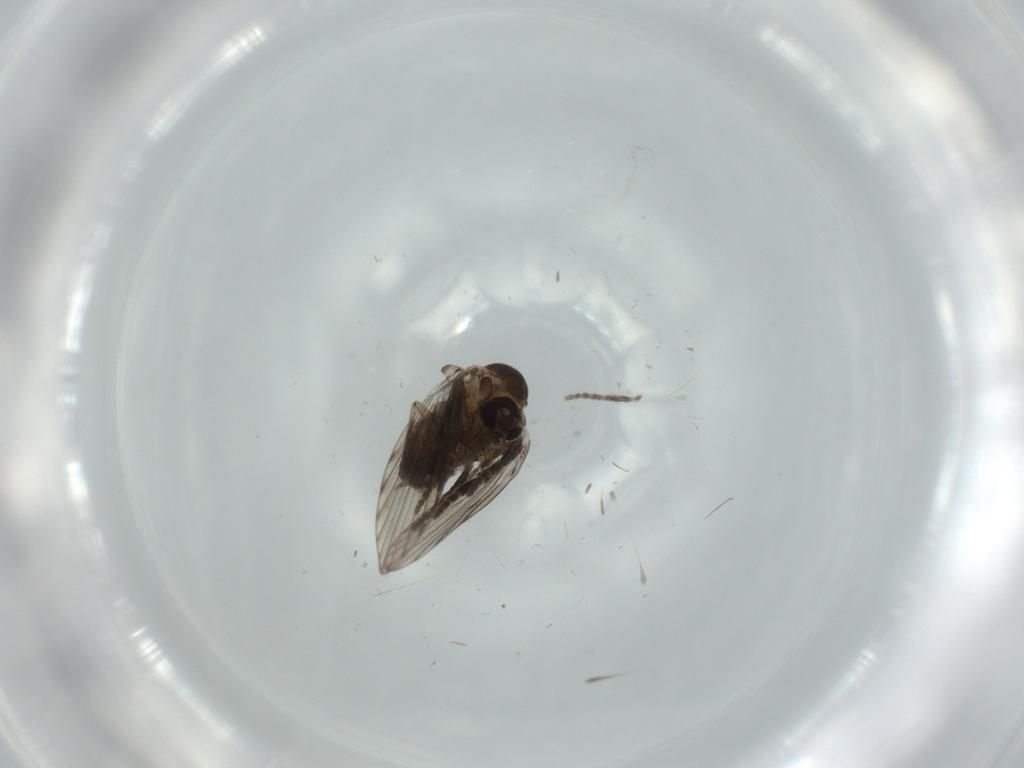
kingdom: Animalia
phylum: Arthropoda
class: Insecta
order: Diptera
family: Psychodidae
